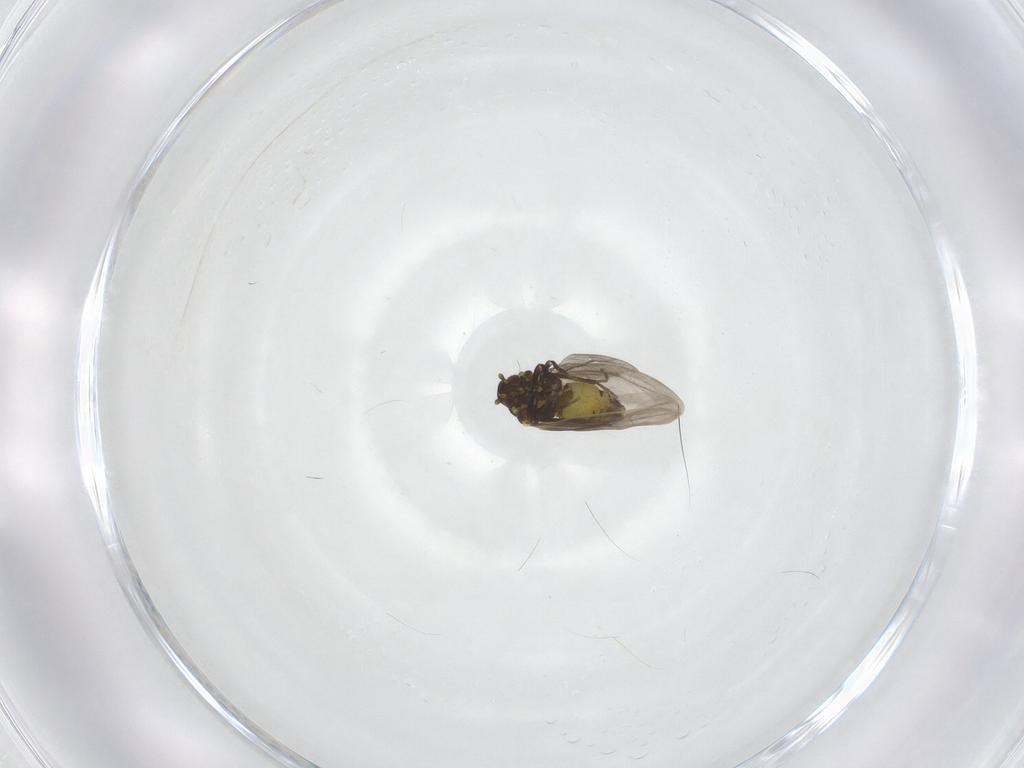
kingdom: Animalia
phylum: Arthropoda
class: Insecta
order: Hemiptera
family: Aleyrodidae
